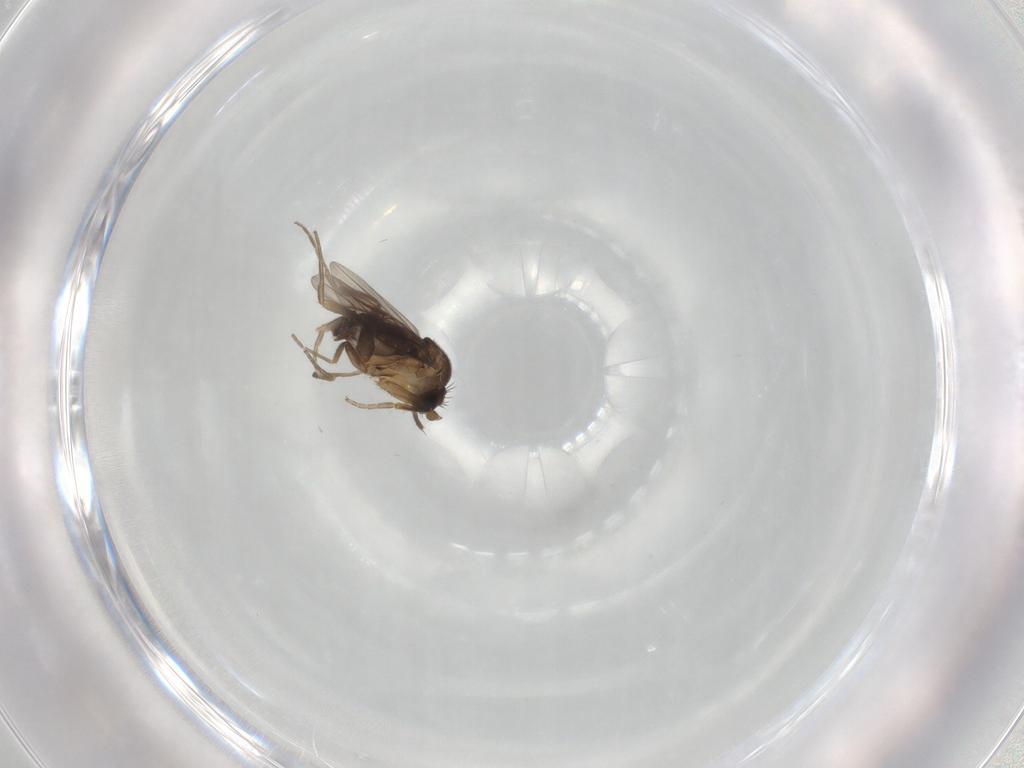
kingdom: Animalia
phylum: Arthropoda
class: Insecta
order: Diptera
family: Phoridae
